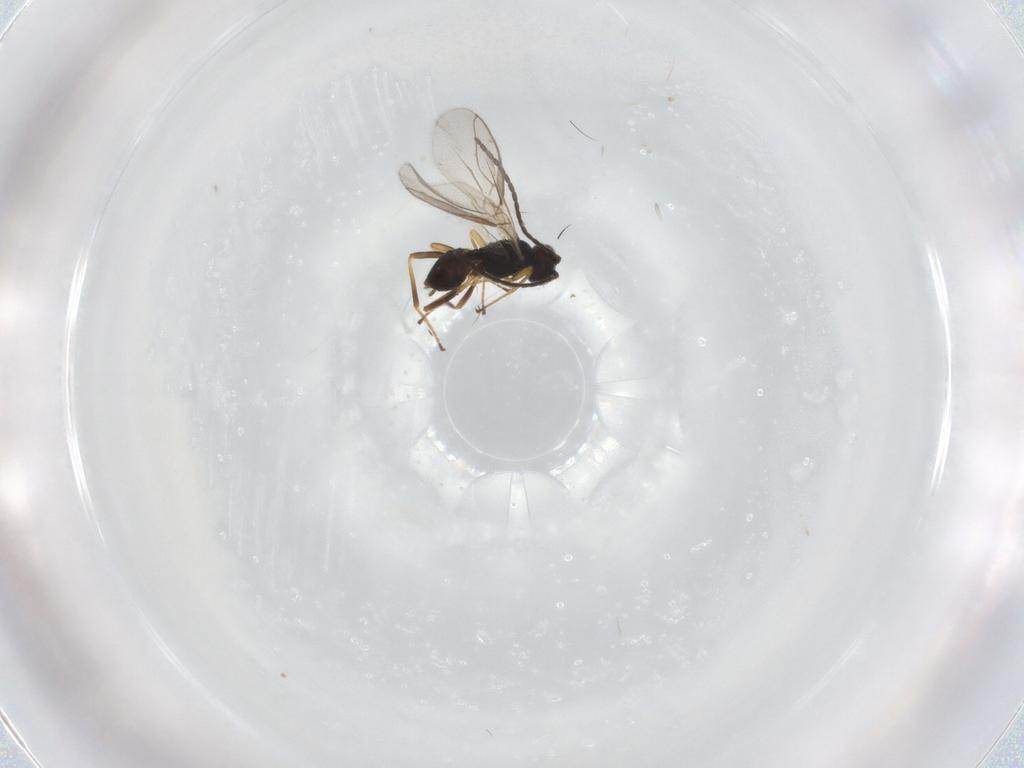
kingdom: Animalia
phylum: Arthropoda
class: Insecta
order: Hymenoptera
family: Braconidae
